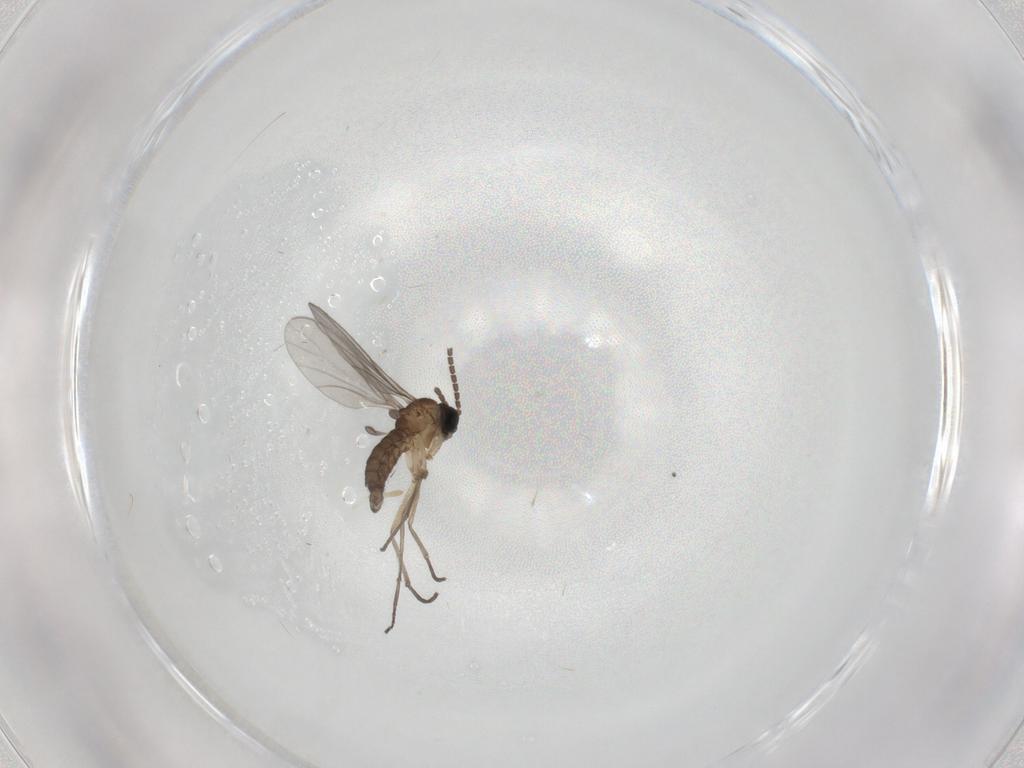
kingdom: Animalia
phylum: Arthropoda
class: Insecta
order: Diptera
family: Sciaridae
